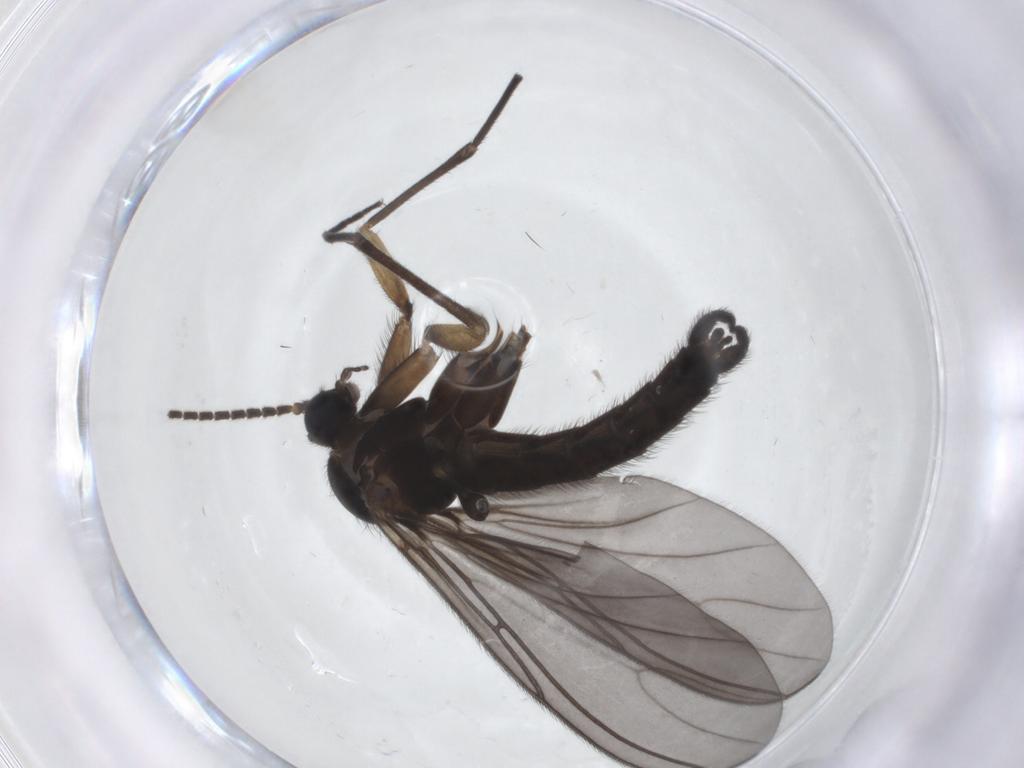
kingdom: Animalia
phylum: Arthropoda
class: Insecta
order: Diptera
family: Sciaridae
